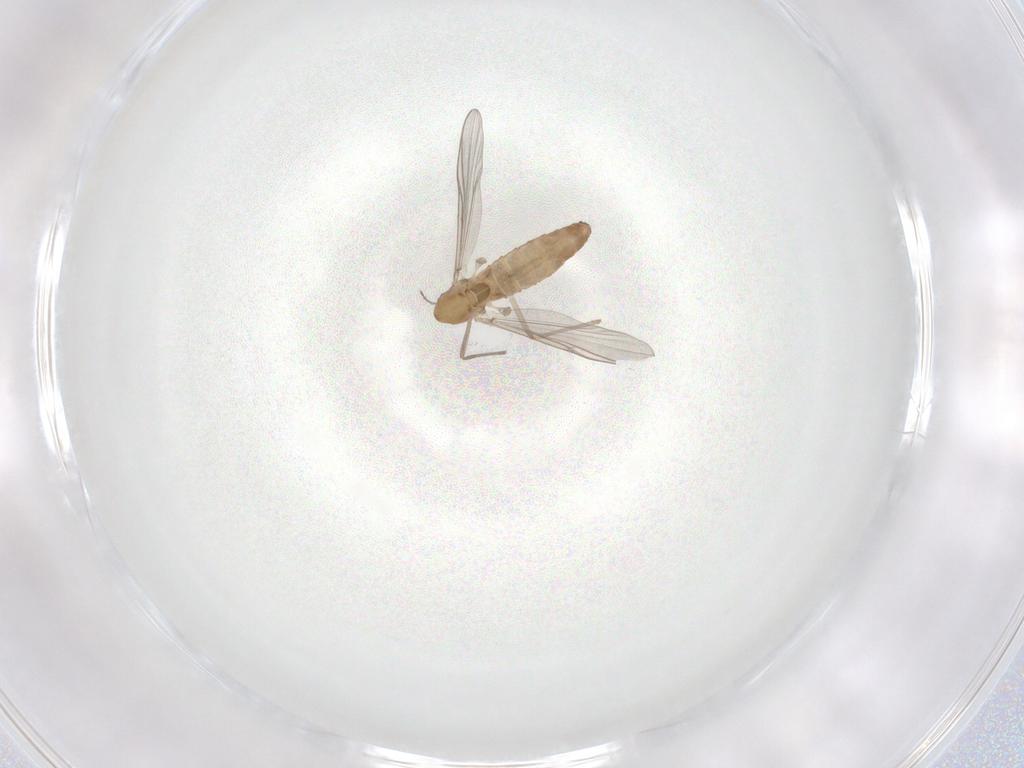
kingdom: Animalia
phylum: Arthropoda
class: Insecta
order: Diptera
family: Chironomidae
